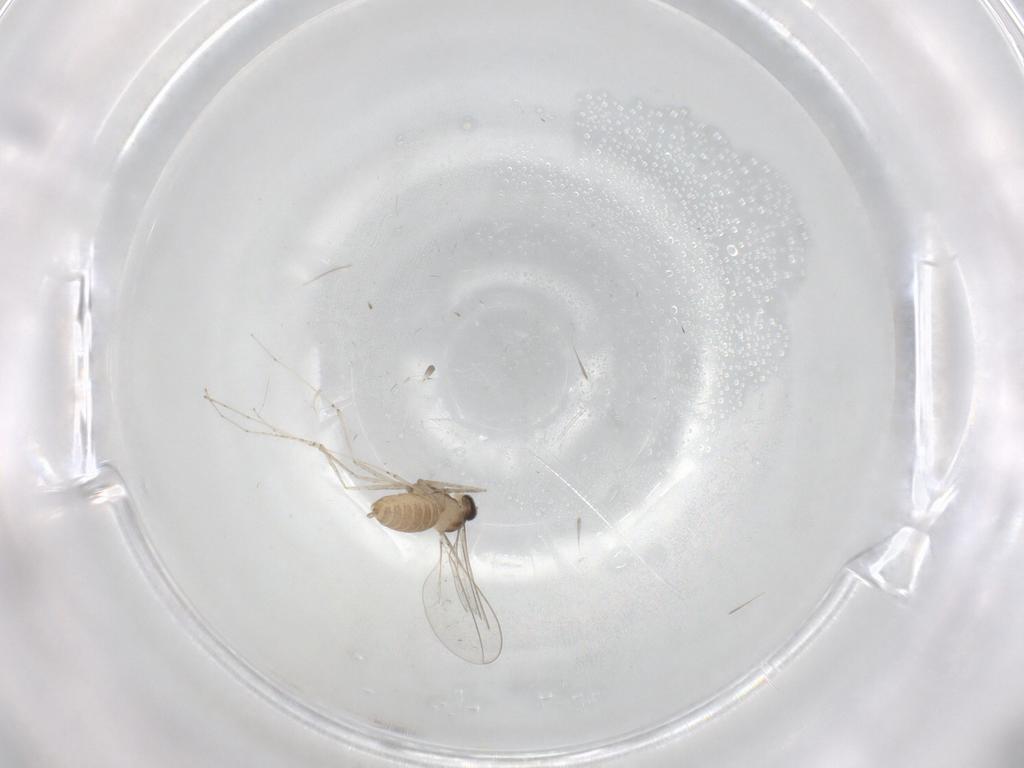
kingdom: Animalia
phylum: Arthropoda
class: Insecta
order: Diptera
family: Cecidomyiidae
